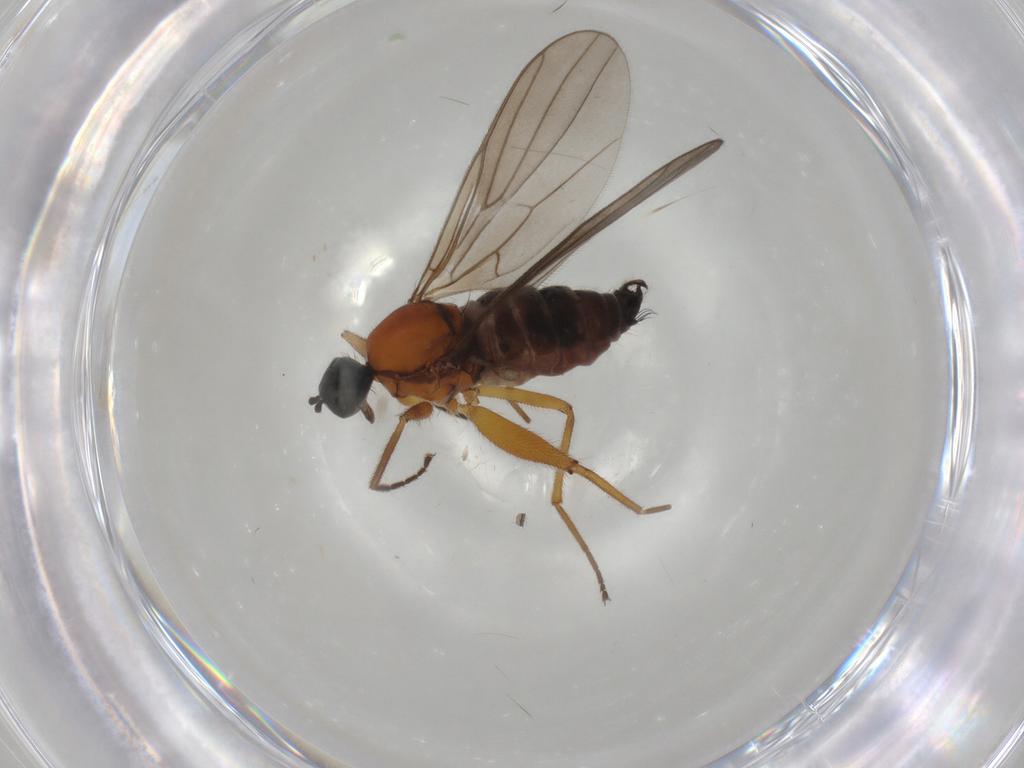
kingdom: Animalia
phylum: Arthropoda
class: Insecta
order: Diptera
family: Hybotidae
